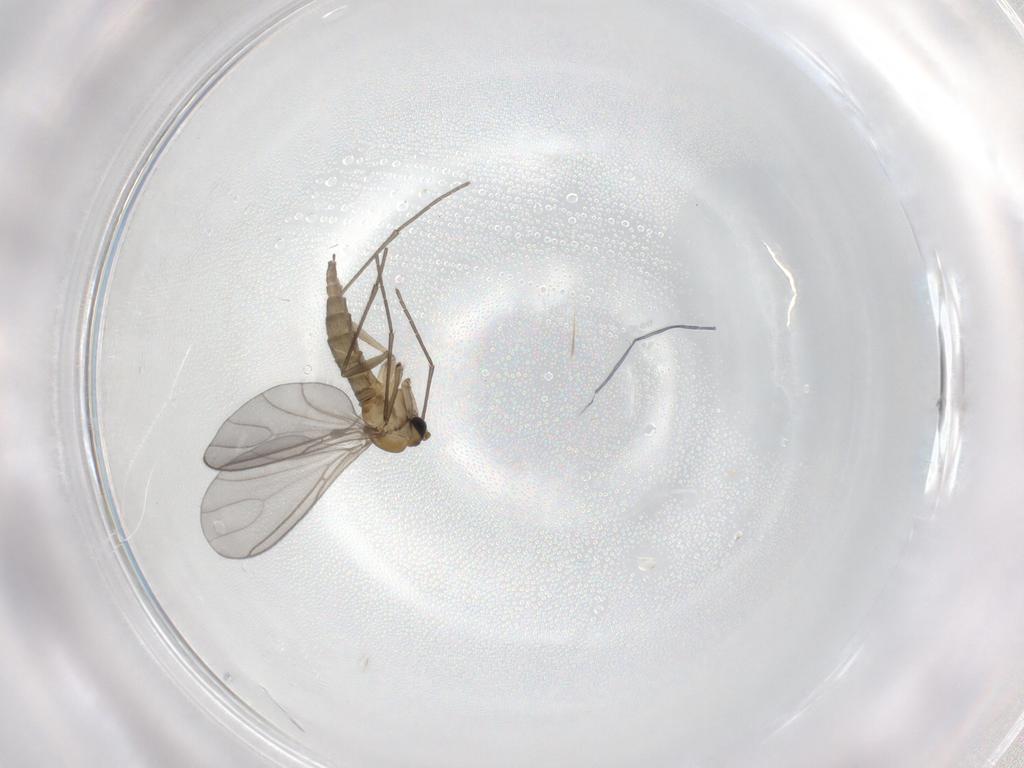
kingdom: Animalia
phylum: Arthropoda
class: Insecta
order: Diptera
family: Sciaridae
